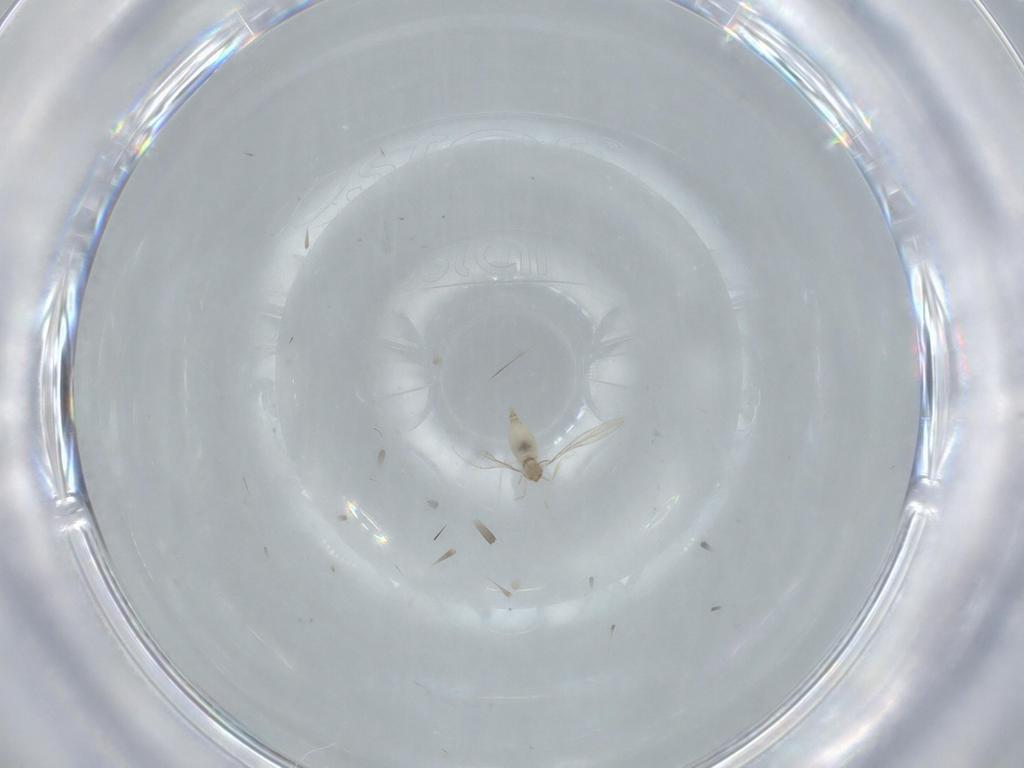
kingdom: Animalia
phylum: Arthropoda
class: Insecta
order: Diptera
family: Cecidomyiidae
